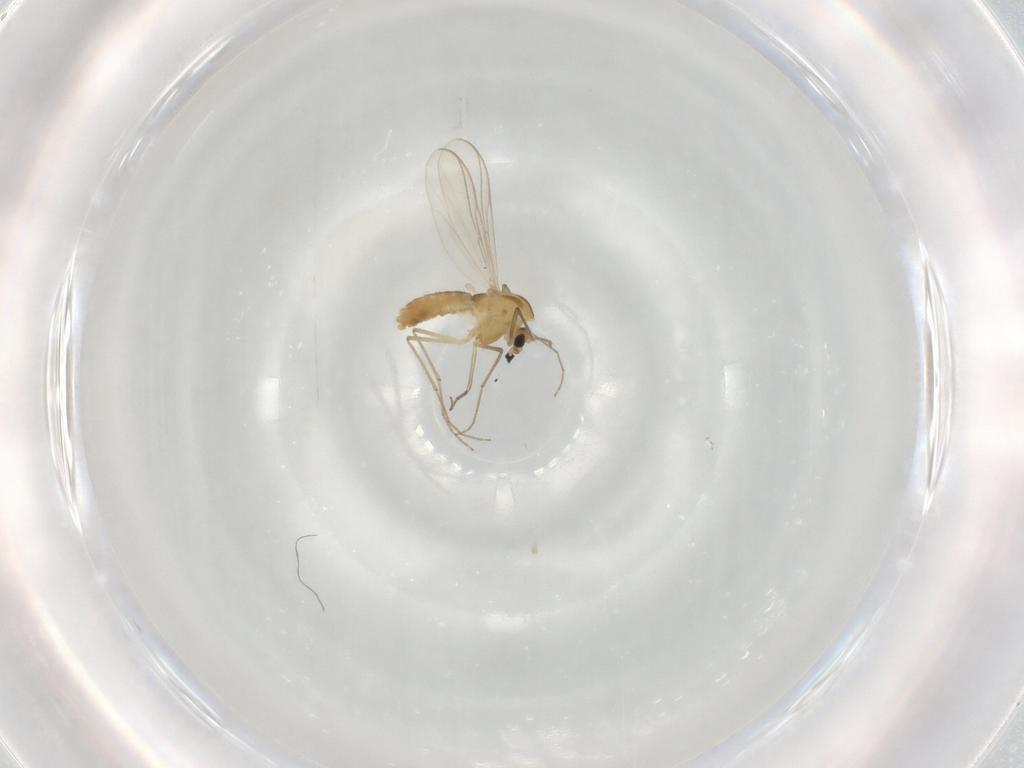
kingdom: Animalia
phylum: Arthropoda
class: Insecta
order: Diptera
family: Chironomidae
